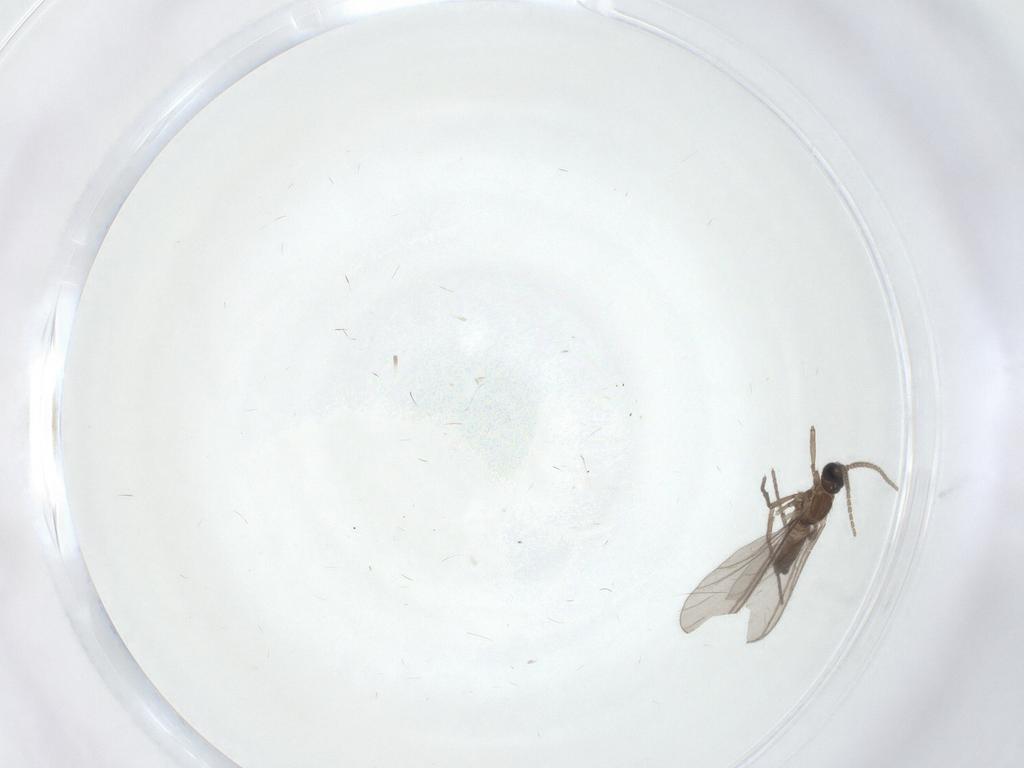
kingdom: Animalia
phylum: Arthropoda
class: Insecta
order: Diptera
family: Sciaridae
